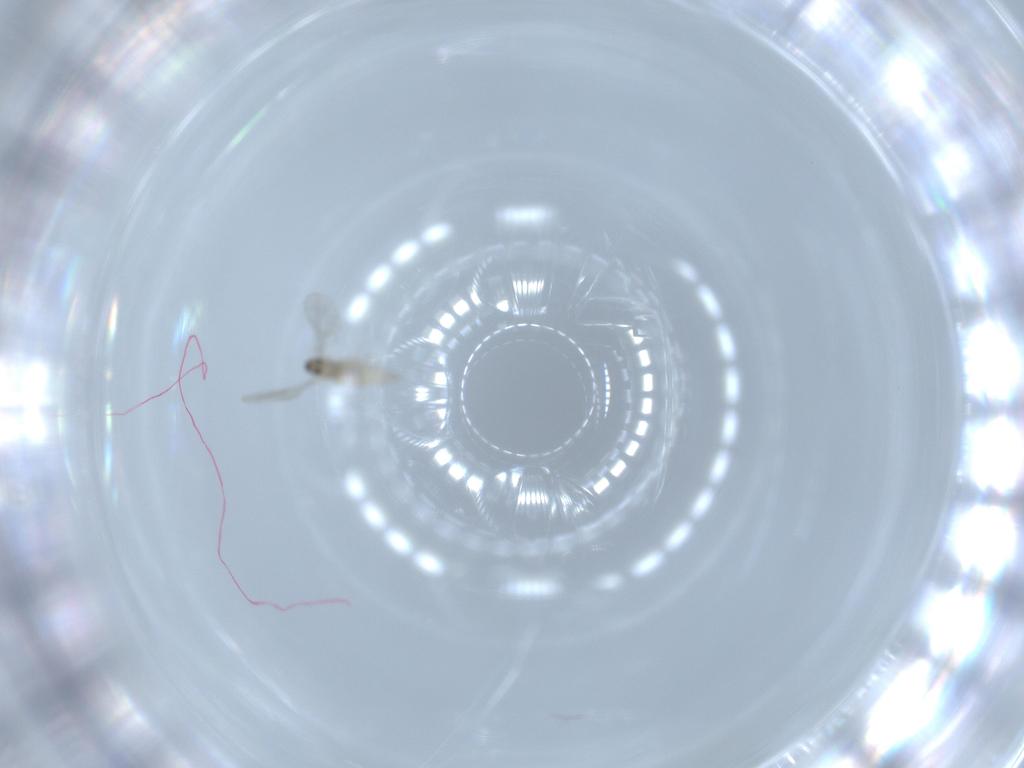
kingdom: Animalia
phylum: Arthropoda
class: Insecta
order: Diptera
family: Cecidomyiidae
